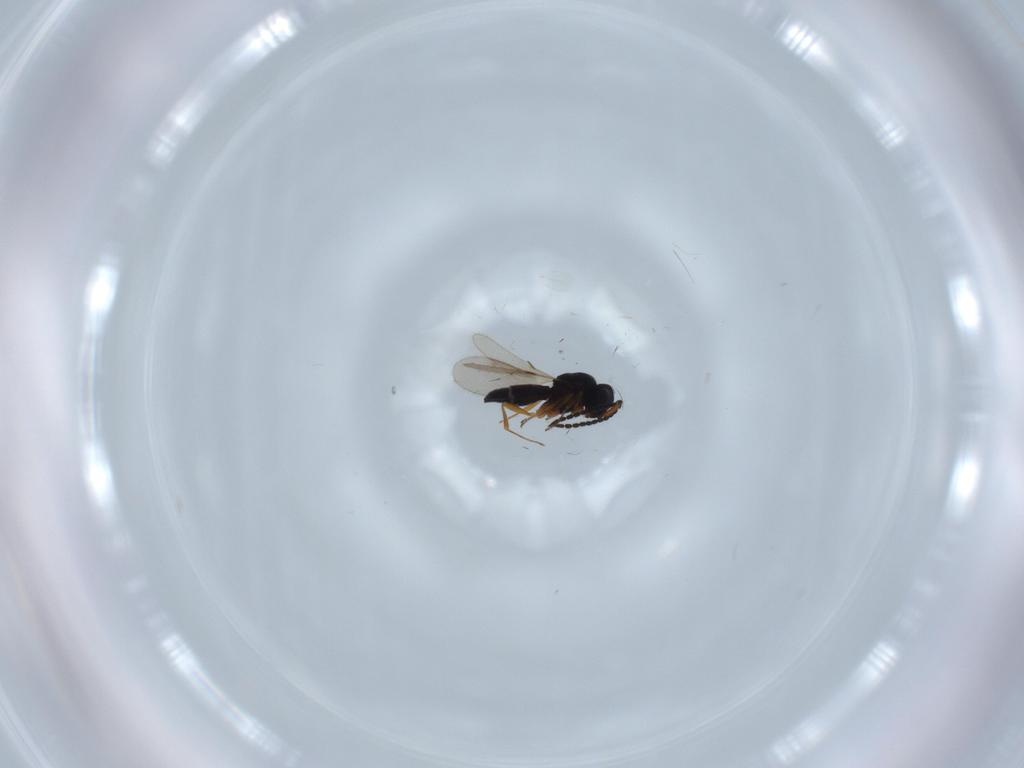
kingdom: Animalia
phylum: Arthropoda
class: Insecta
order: Hymenoptera
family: Scelionidae
